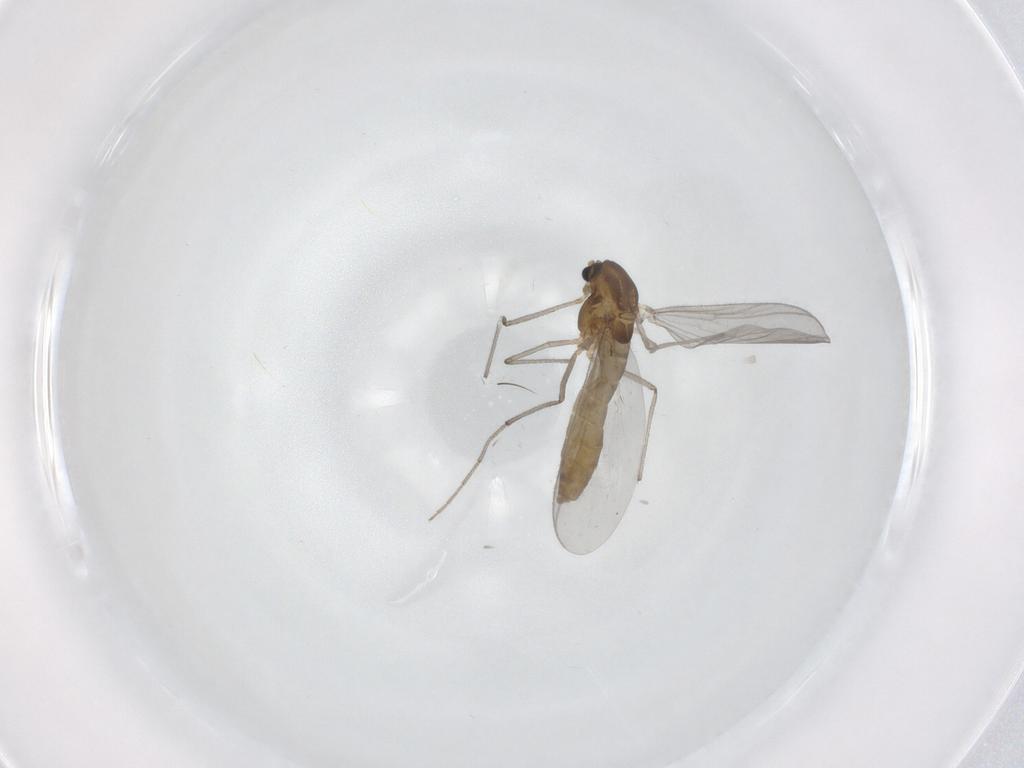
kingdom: Animalia
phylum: Arthropoda
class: Insecta
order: Diptera
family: Chironomidae
